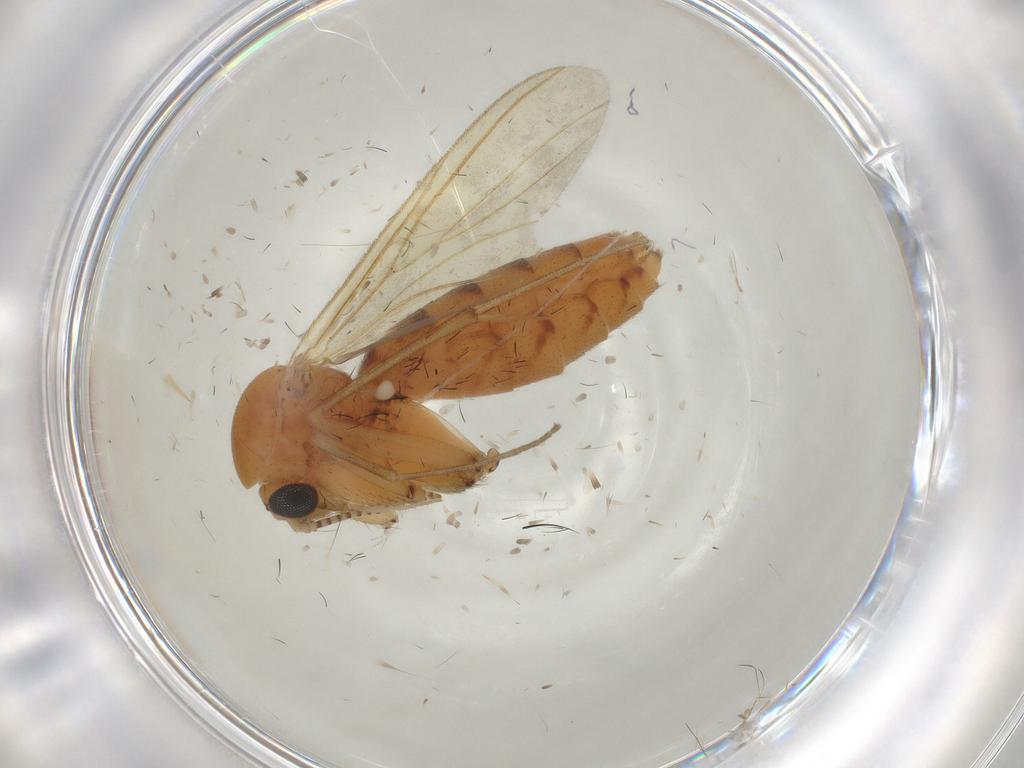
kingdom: Animalia
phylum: Arthropoda
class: Insecta
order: Diptera
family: Mycetophilidae
